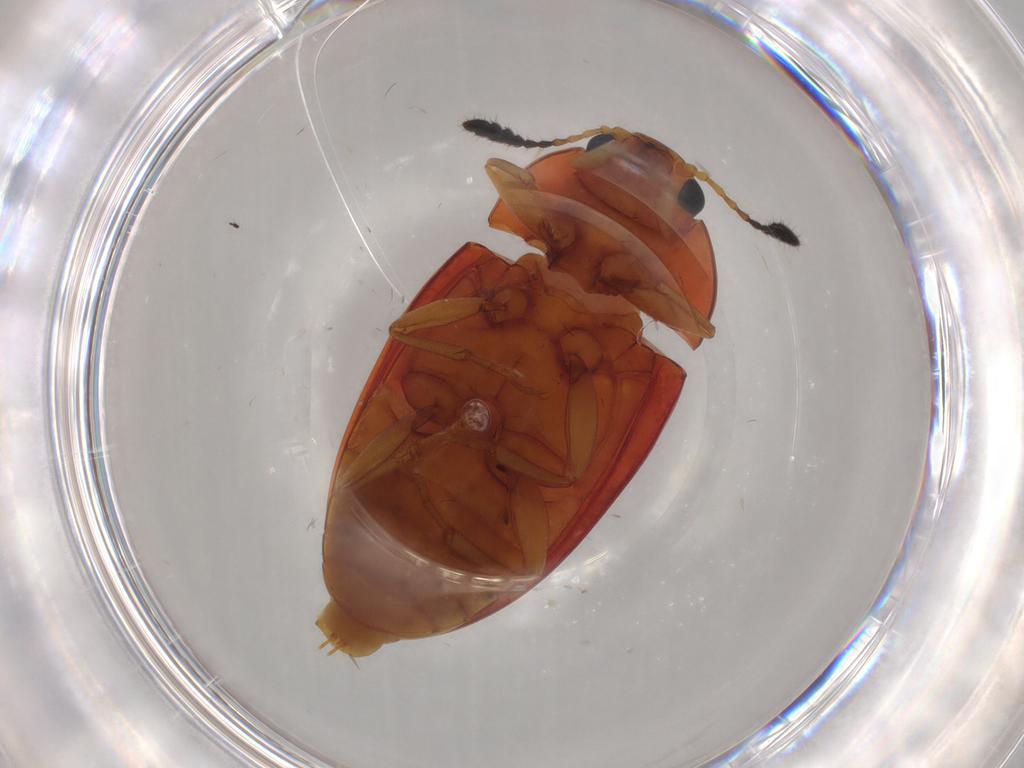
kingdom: Animalia
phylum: Arthropoda
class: Insecta
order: Coleoptera
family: Erotylidae
